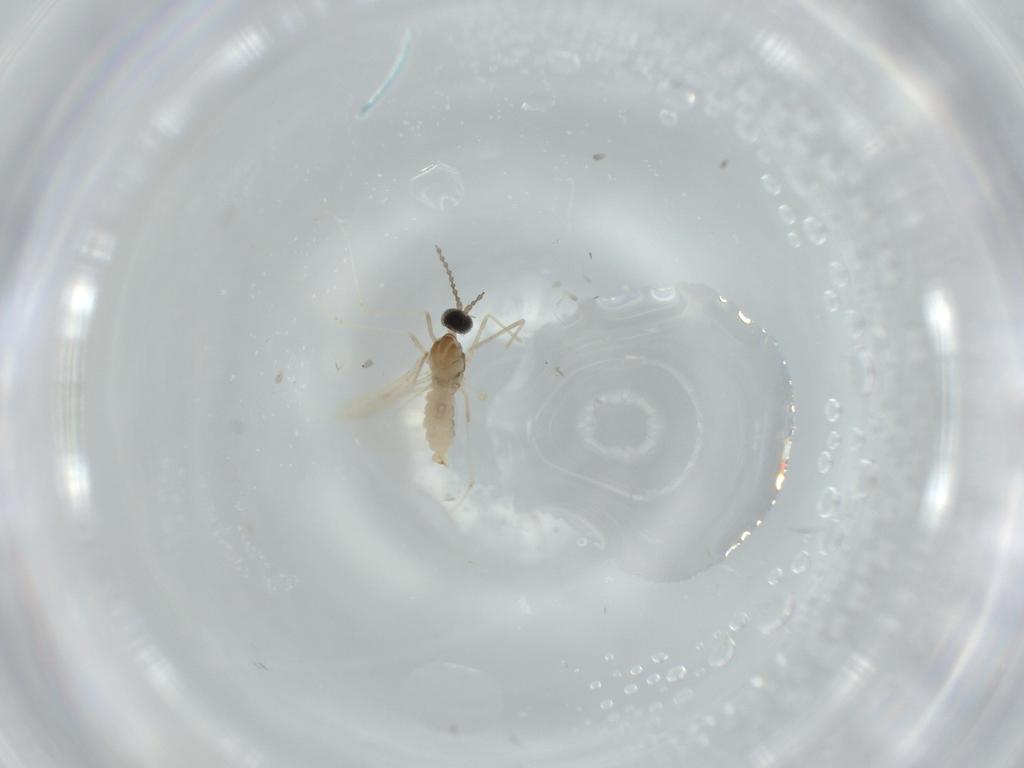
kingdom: Animalia
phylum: Arthropoda
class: Insecta
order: Diptera
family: Cecidomyiidae
